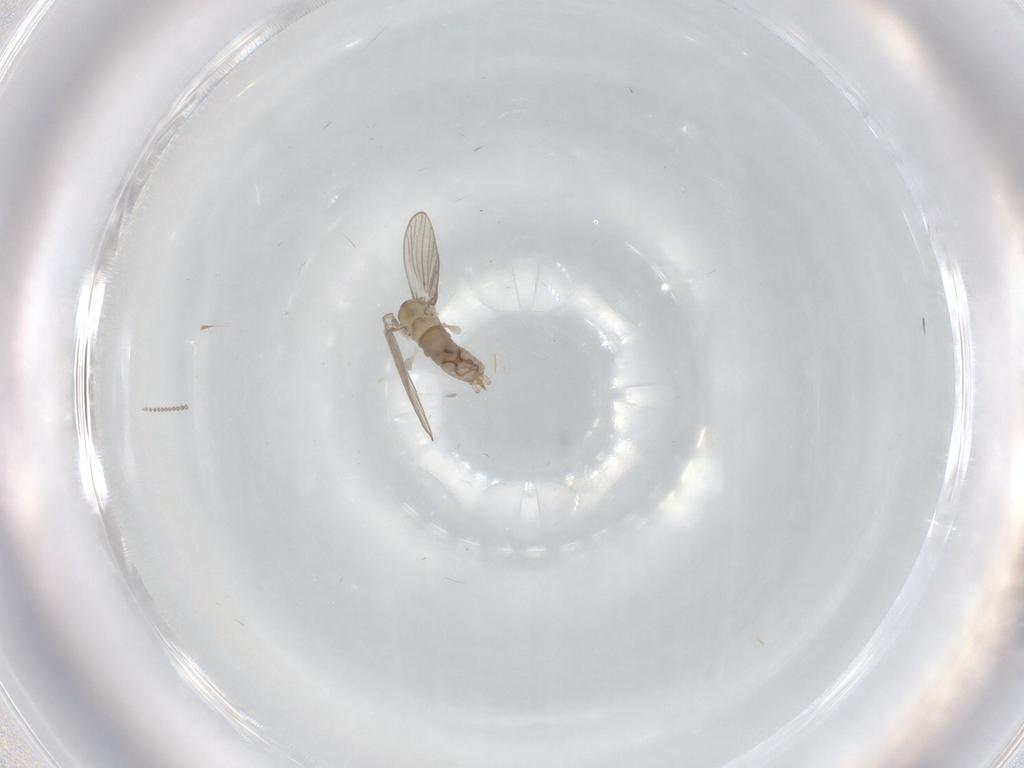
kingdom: Animalia
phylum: Arthropoda
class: Insecta
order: Diptera
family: Psychodidae
